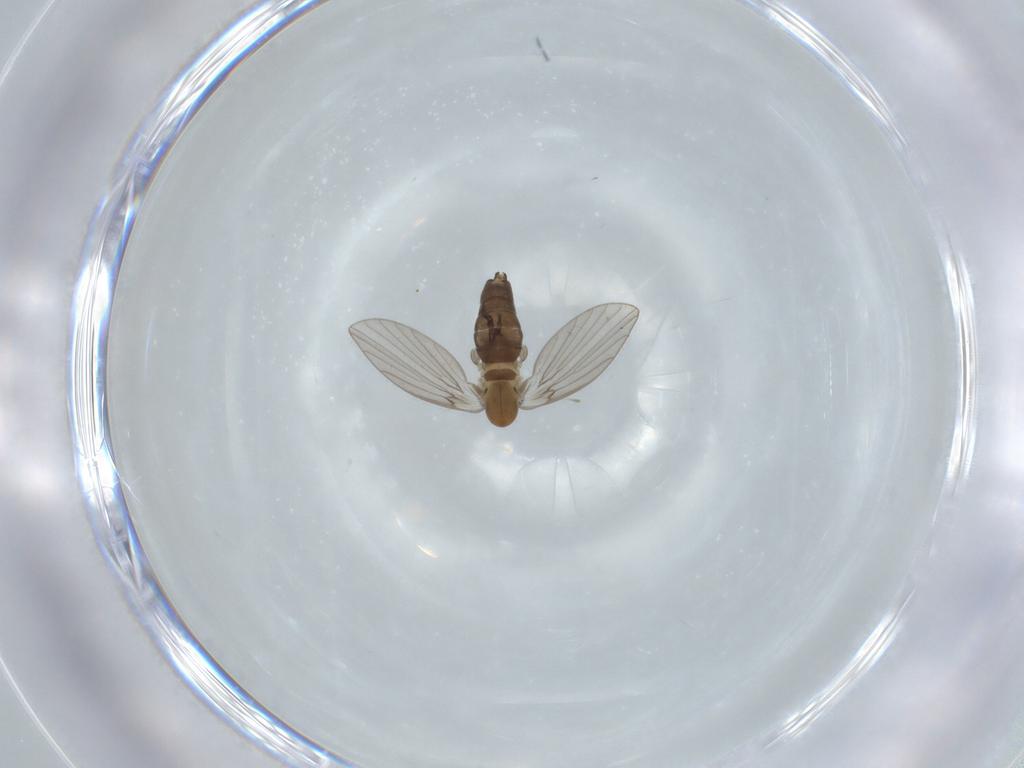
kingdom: Animalia
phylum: Arthropoda
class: Insecta
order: Diptera
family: Psychodidae
